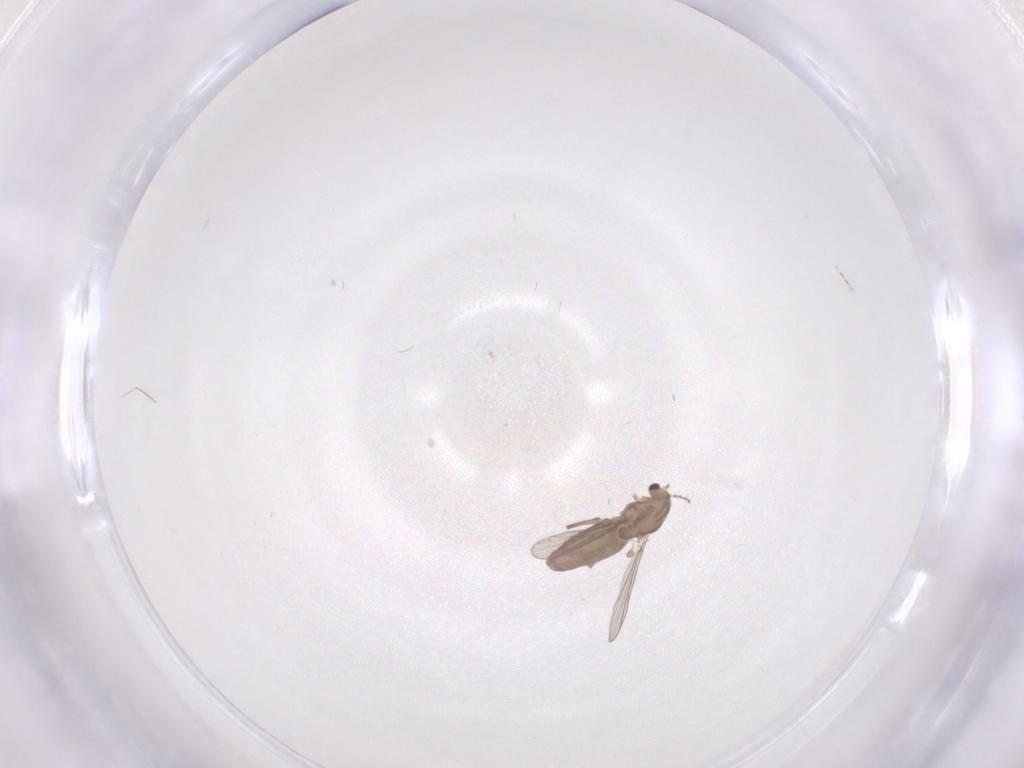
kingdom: Animalia
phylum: Arthropoda
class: Insecta
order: Diptera
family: Chironomidae
